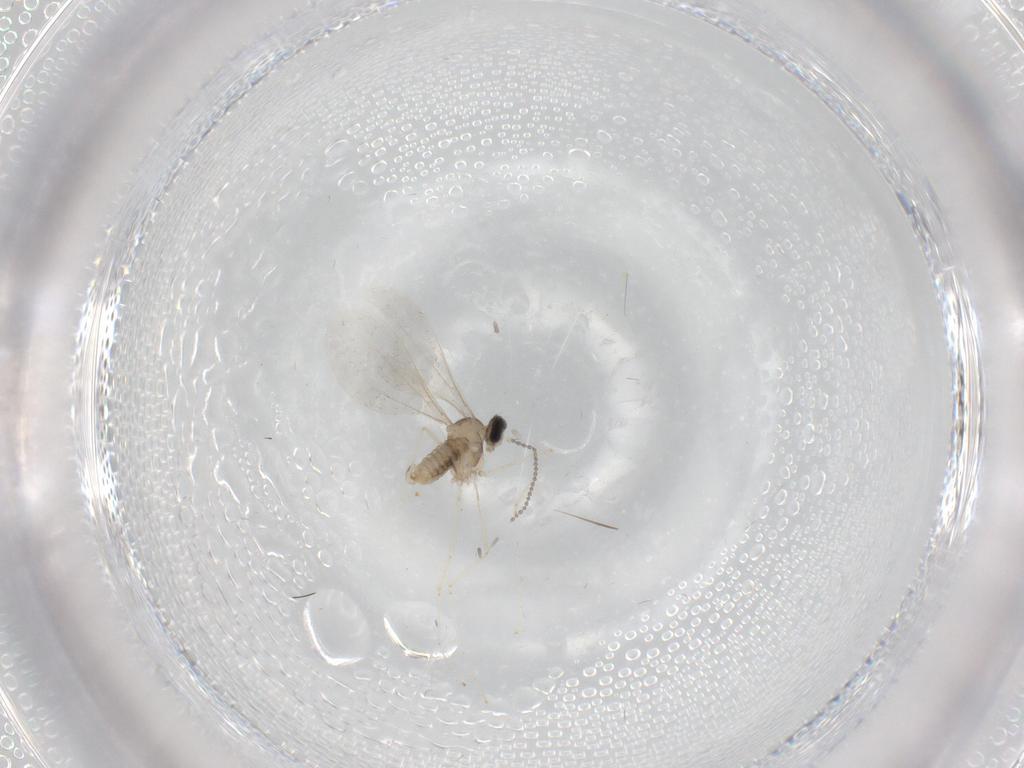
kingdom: Animalia
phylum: Arthropoda
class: Insecta
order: Diptera
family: Cecidomyiidae
